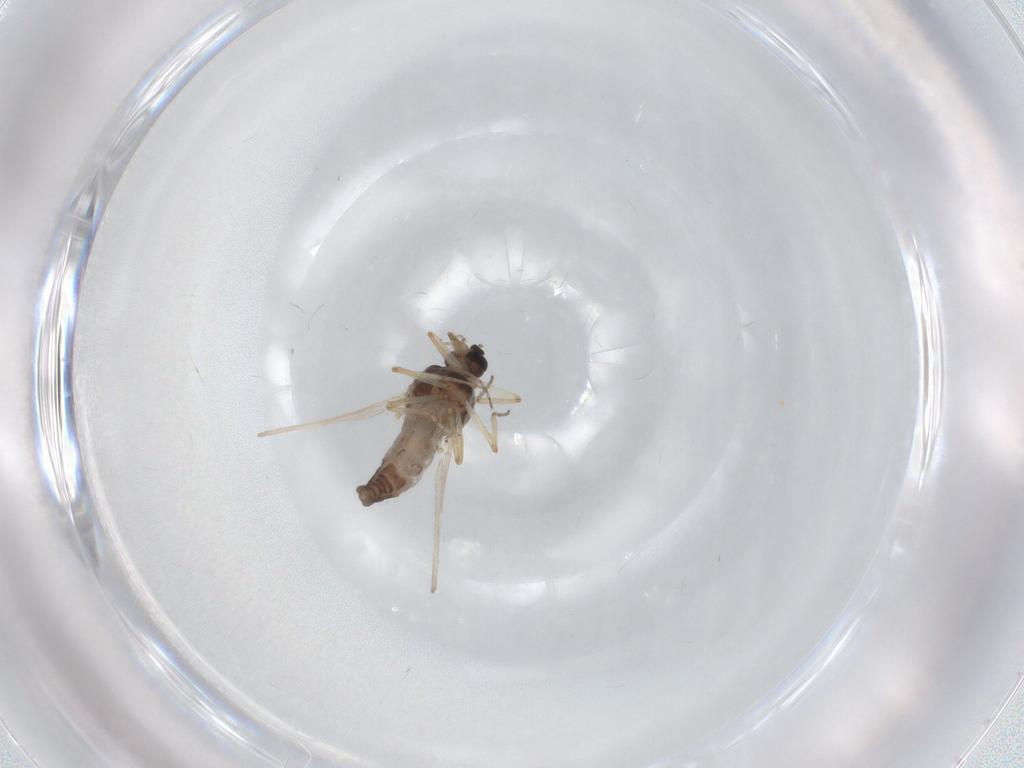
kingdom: Animalia
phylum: Arthropoda
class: Insecta
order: Diptera
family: Ceratopogonidae
